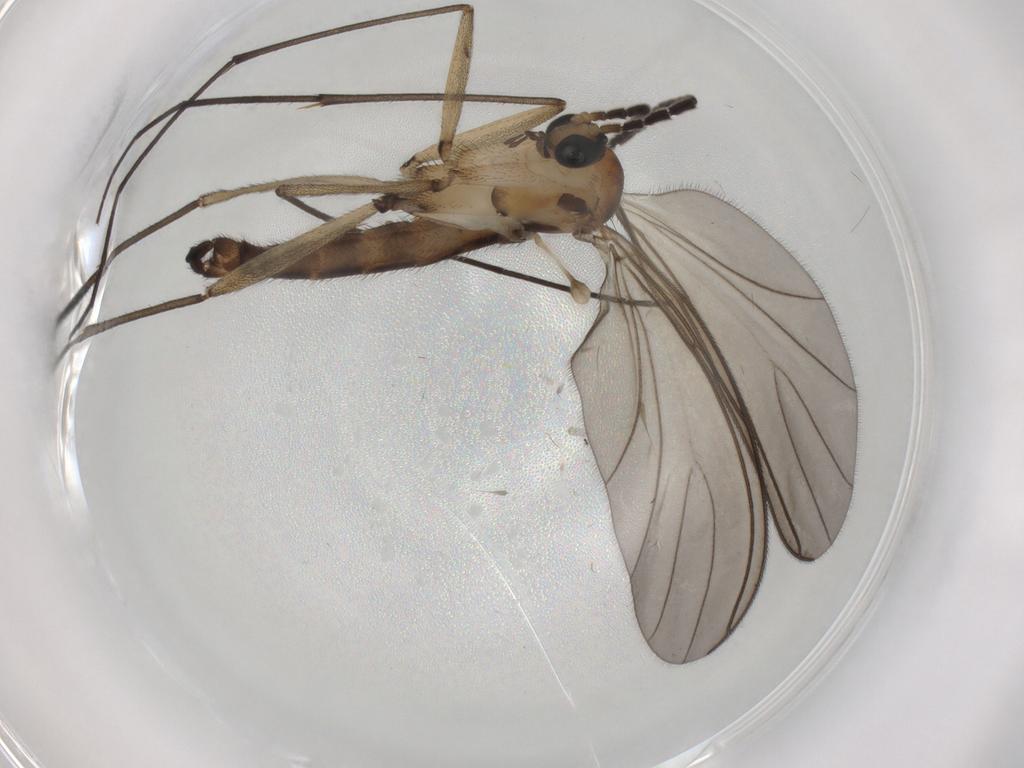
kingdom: Animalia
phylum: Arthropoda
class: Insecta
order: Diptera
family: Sciaridae
